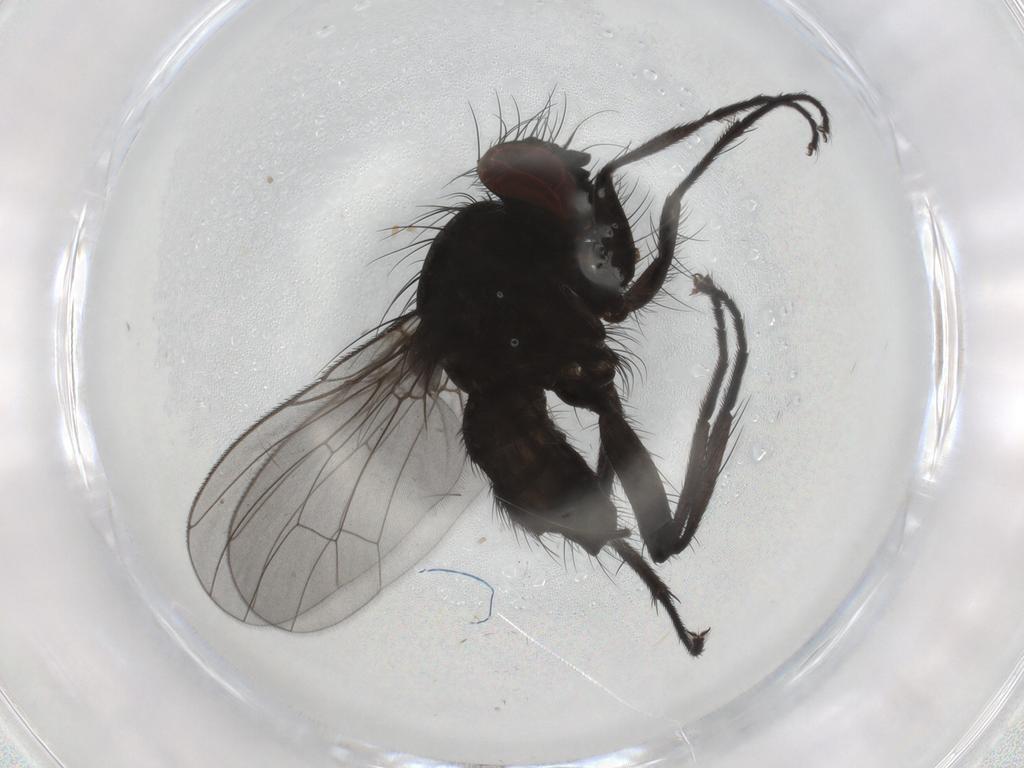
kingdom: Animalia
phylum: Arthropoda
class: Insecta
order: Diptera
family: Muscidae
